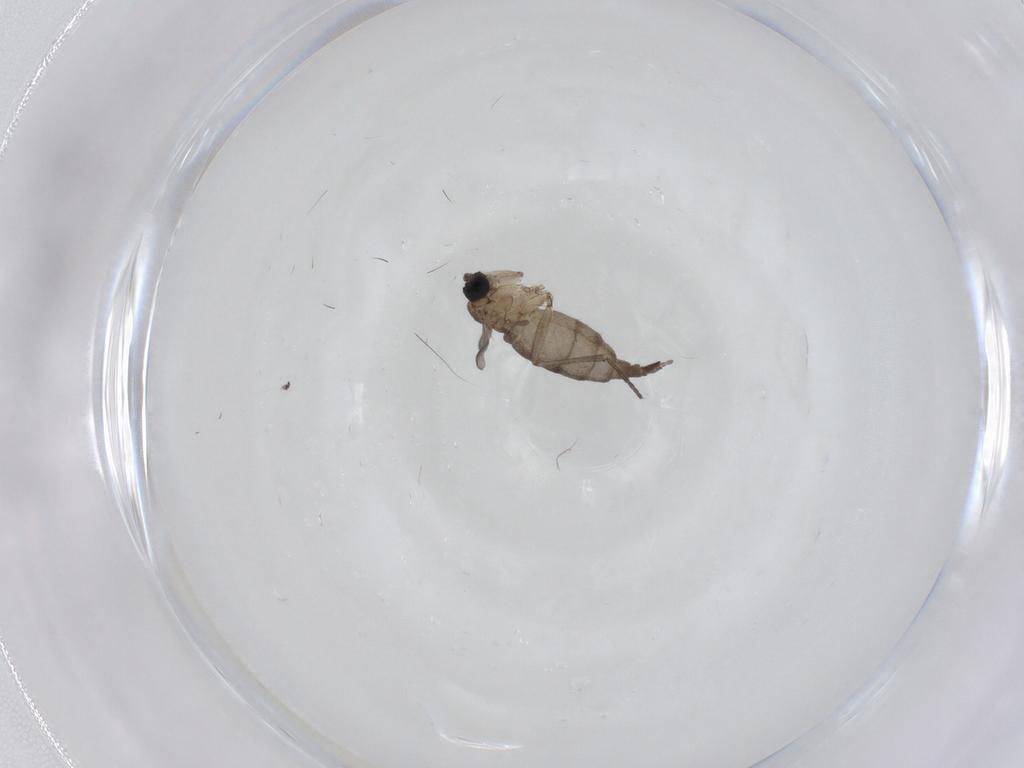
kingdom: Animalia
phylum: Arthropoda
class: Insecta
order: Diptera
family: Sciaridae
